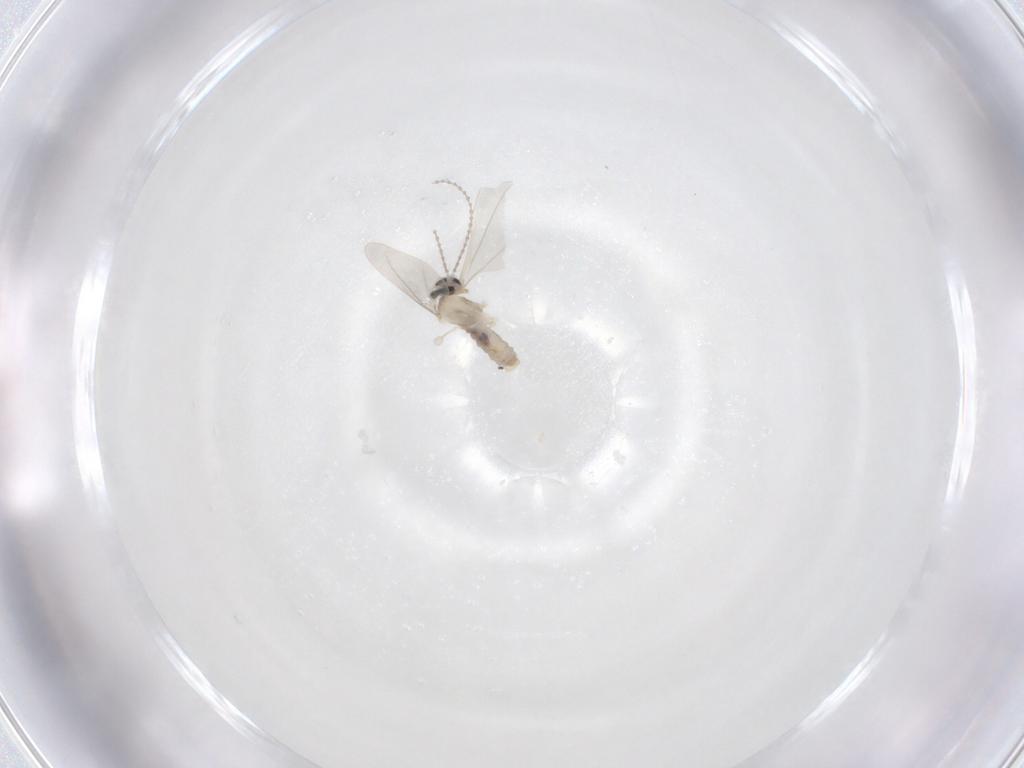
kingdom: Animalia
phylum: Arthropoda
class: Insecta
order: Diptera
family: Cecidomyiidae
